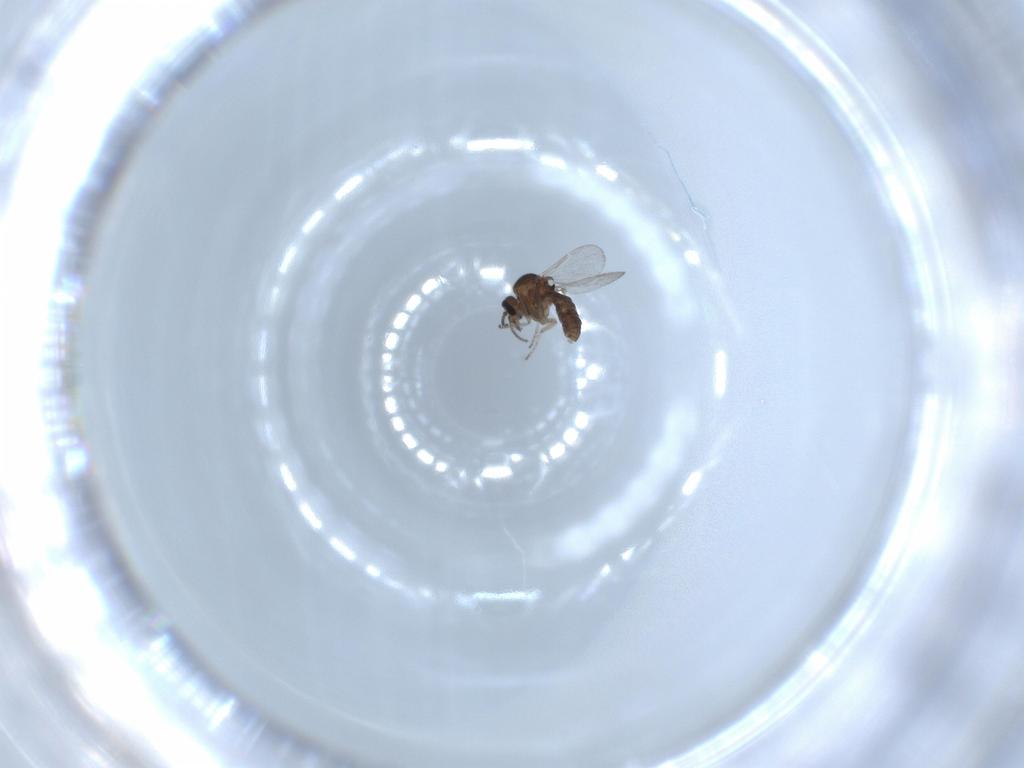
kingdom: Animalia
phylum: Arthropoda
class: Insecta
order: Diptera
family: Ceratopogonidae
